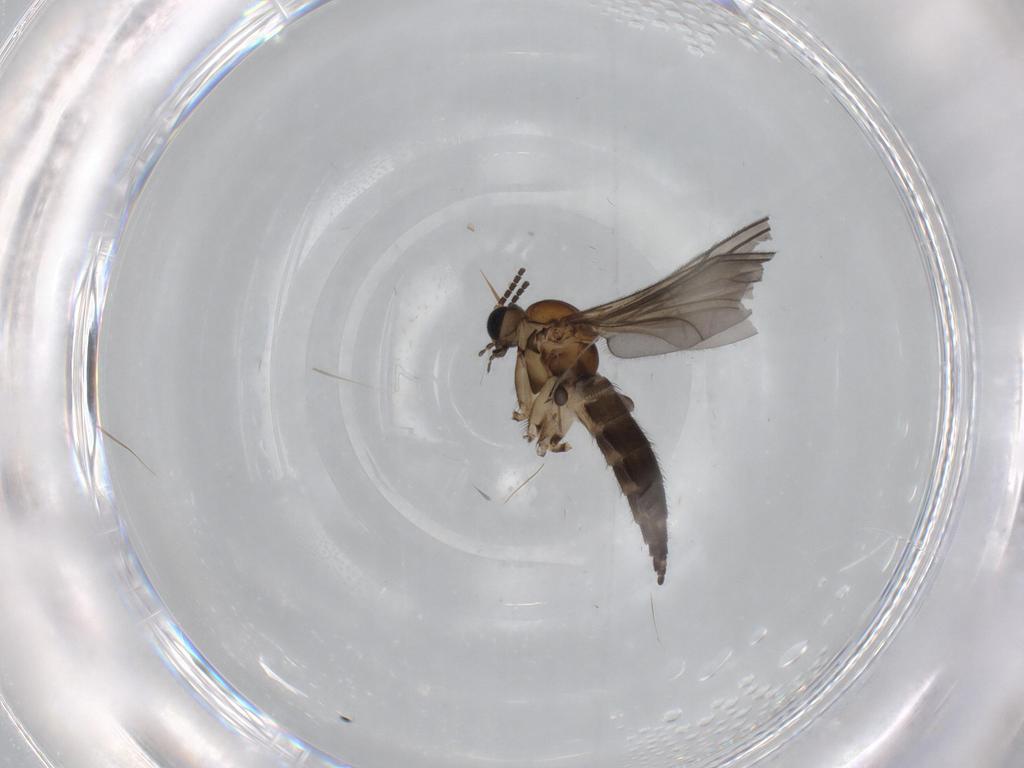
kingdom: Animalia
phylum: Arthropoda
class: Insecta
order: Diptera
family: Sciaridae
